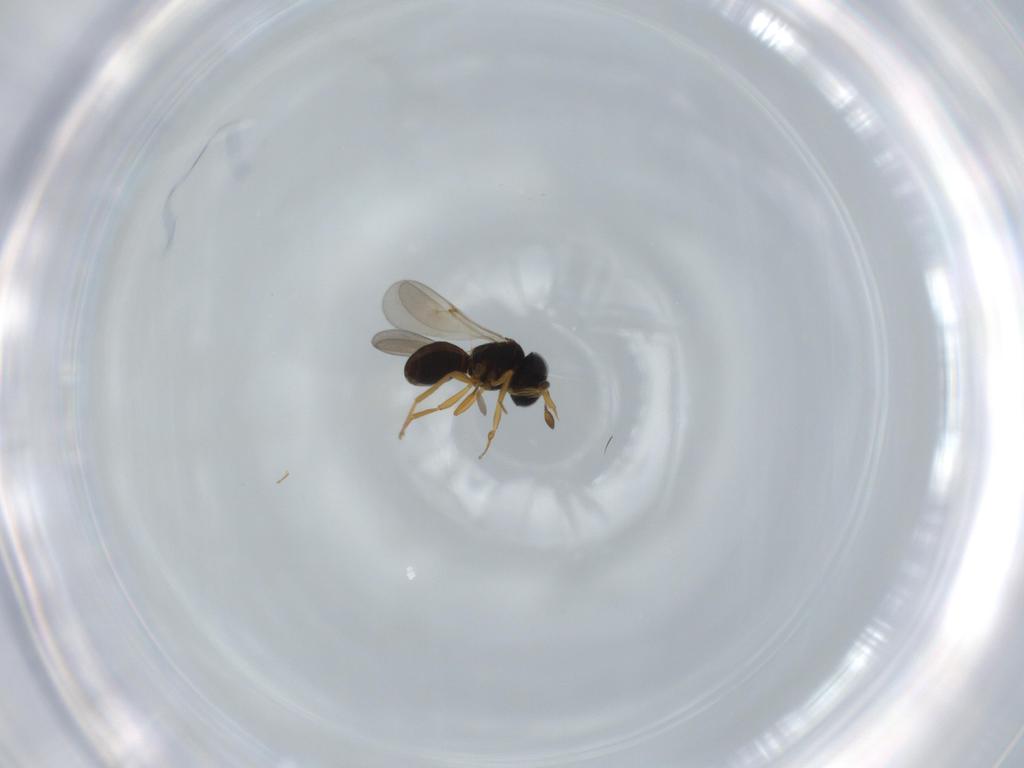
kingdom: Animalia
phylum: Arthropoda
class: Insecta
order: Hymenoptera
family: Scelionidae
